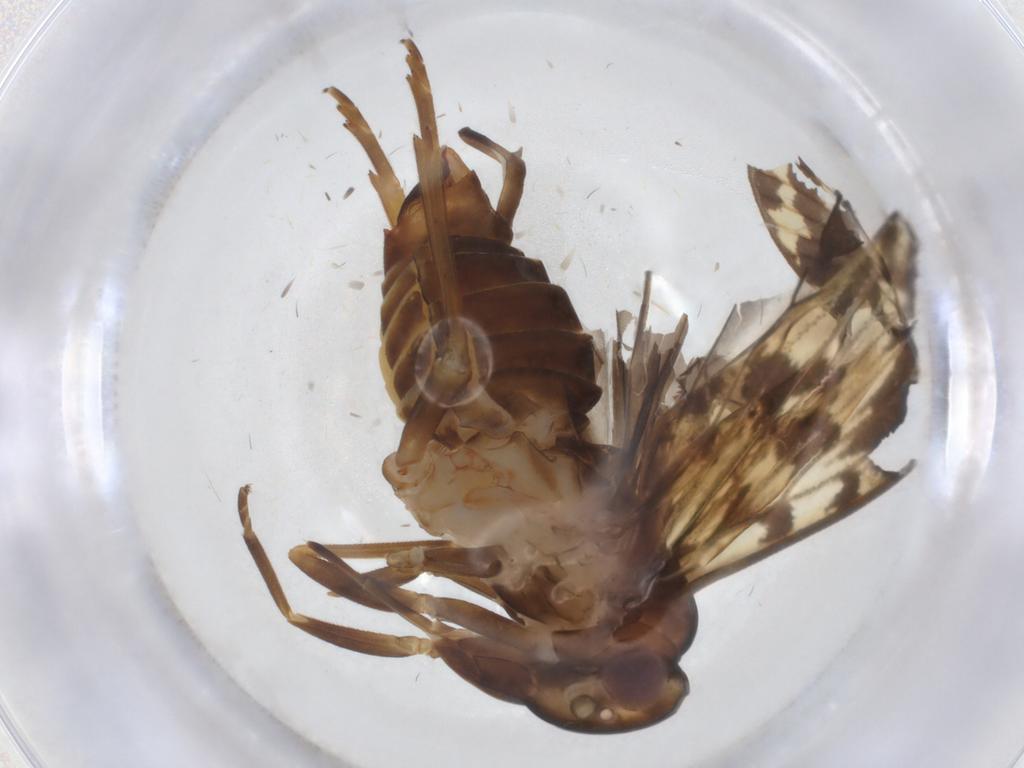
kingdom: Animalia
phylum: Arthropoda
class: Insecta
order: Hemiptera
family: Cixiidae
